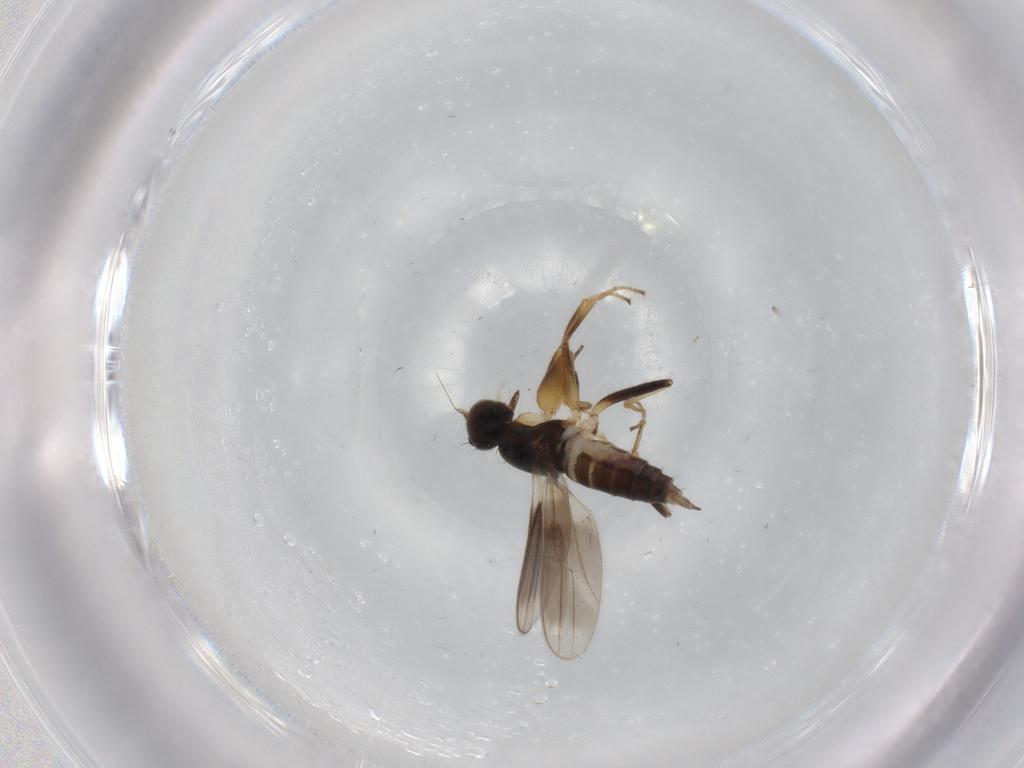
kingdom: Animalia
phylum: Arthropoda
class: Insecta
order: Diptera
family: Hybotidae
